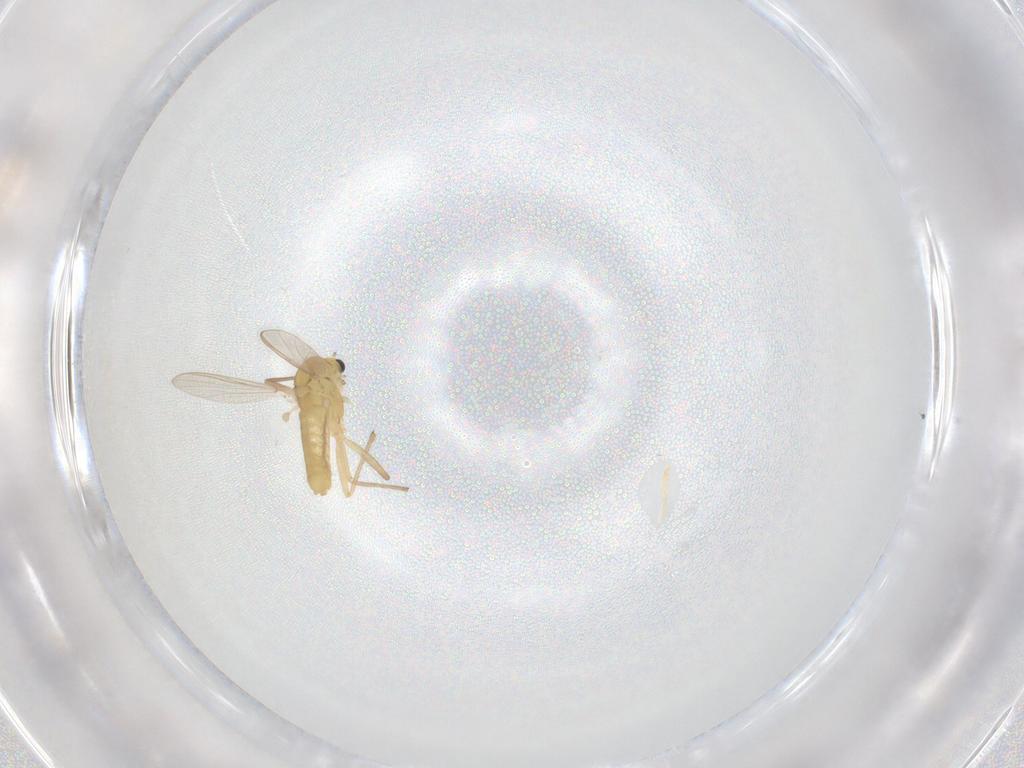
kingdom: Animalia
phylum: Arthropoda
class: Insecta
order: Diptera
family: Chironomidae
